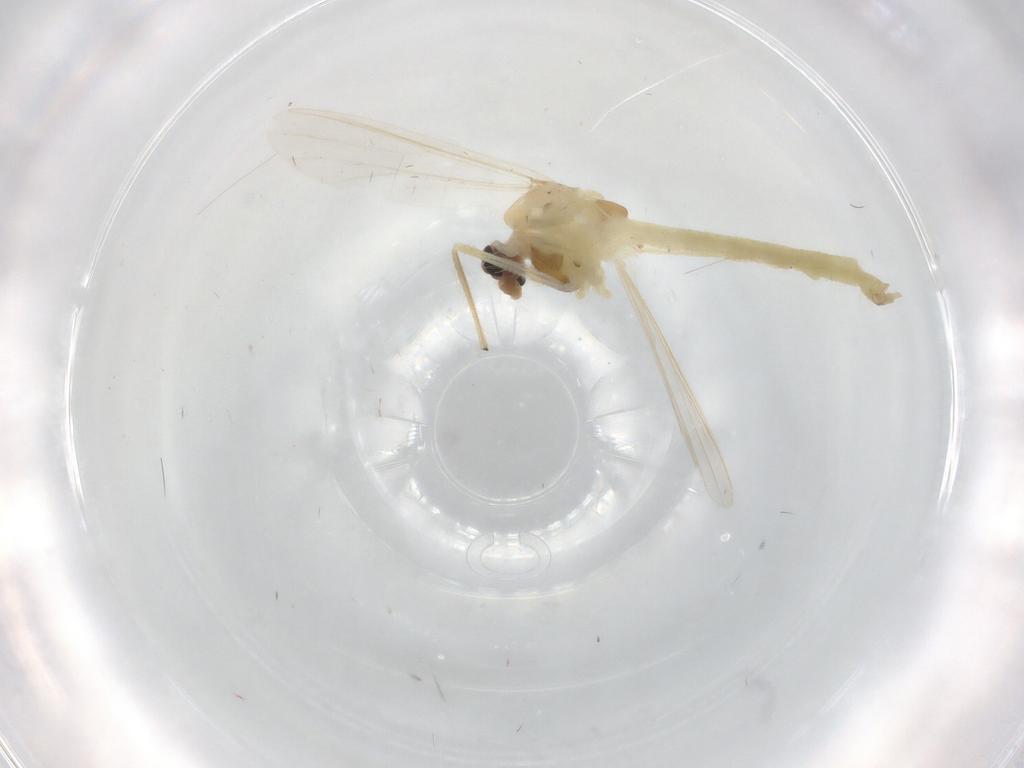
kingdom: Animalia
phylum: Arthropoda
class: Insecta
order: Diptera
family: Chironomidae
